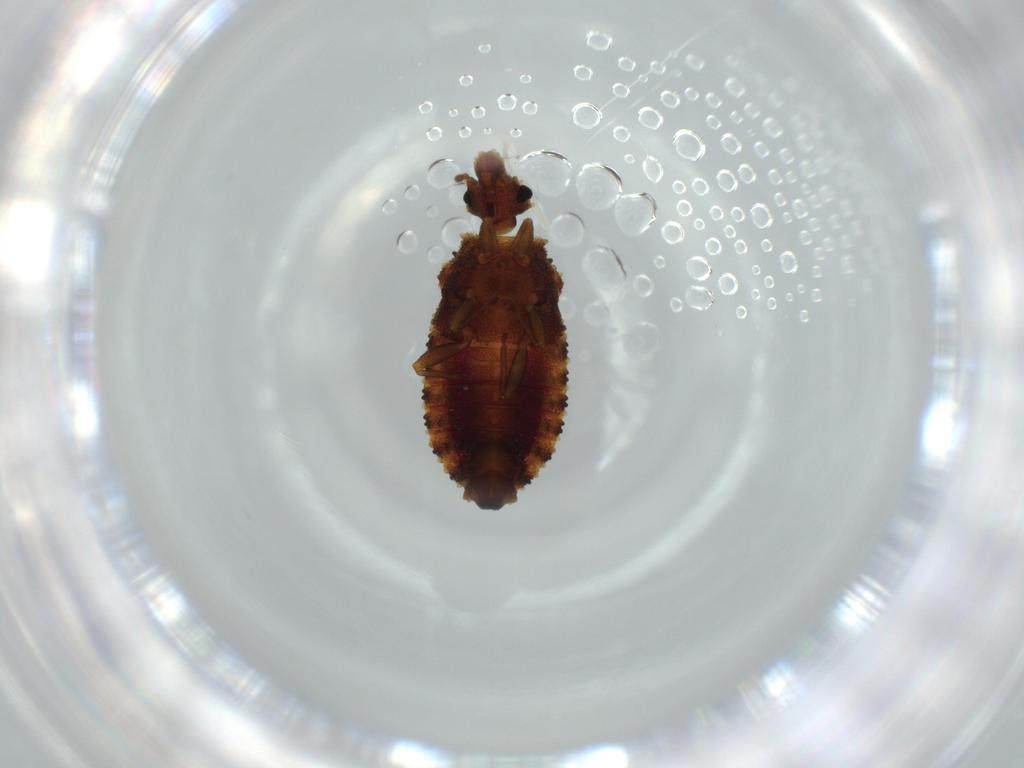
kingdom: Animalia
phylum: Arthropoda
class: Insecta
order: Hemiptera
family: Aradidae
